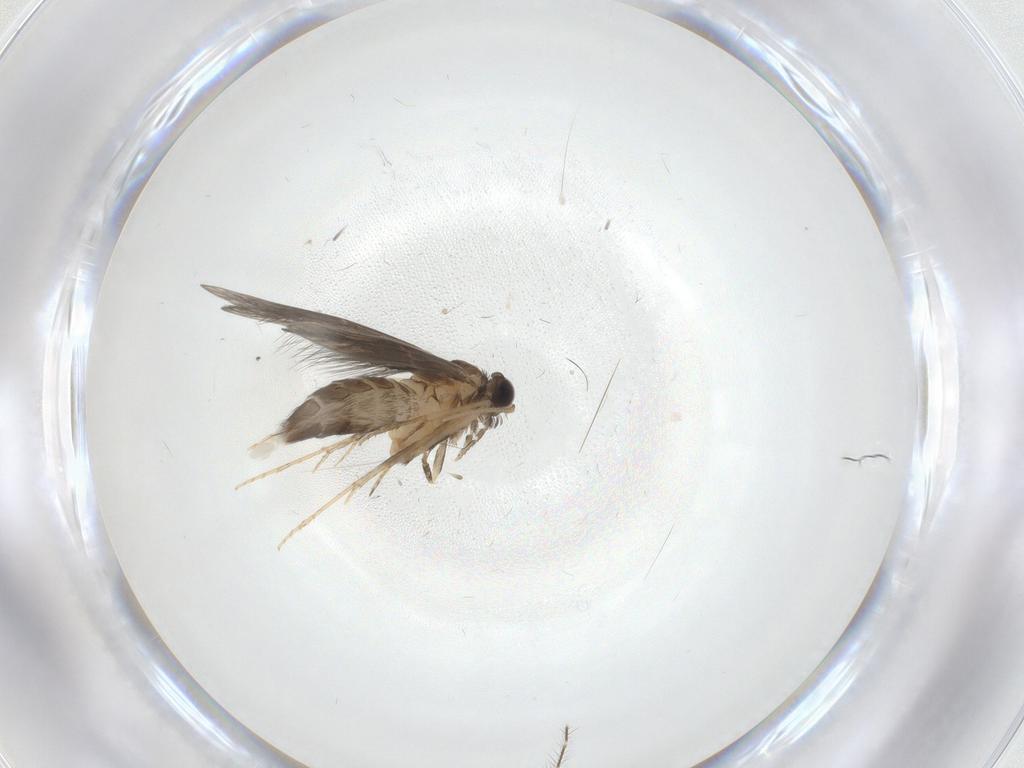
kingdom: Animalia
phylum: Arthropoda
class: Insecta
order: Trichoptera
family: Hydroptilidae
